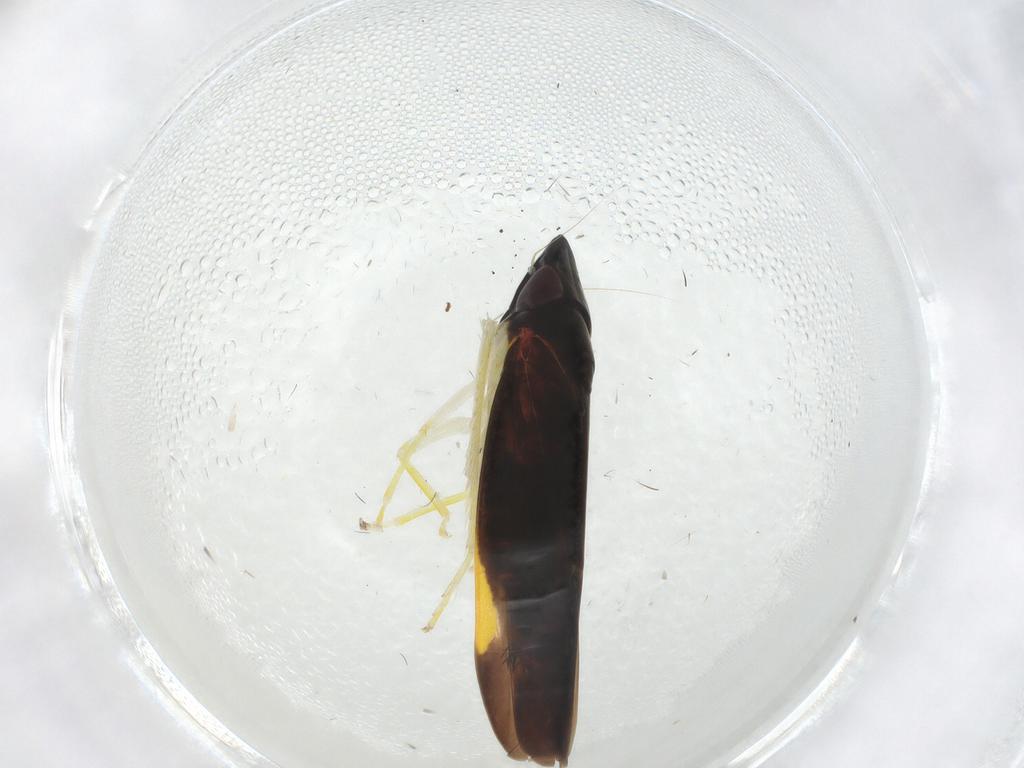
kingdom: Animalia
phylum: Arthropoda
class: Insecta
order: Hemiptera
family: Cicadellidae
